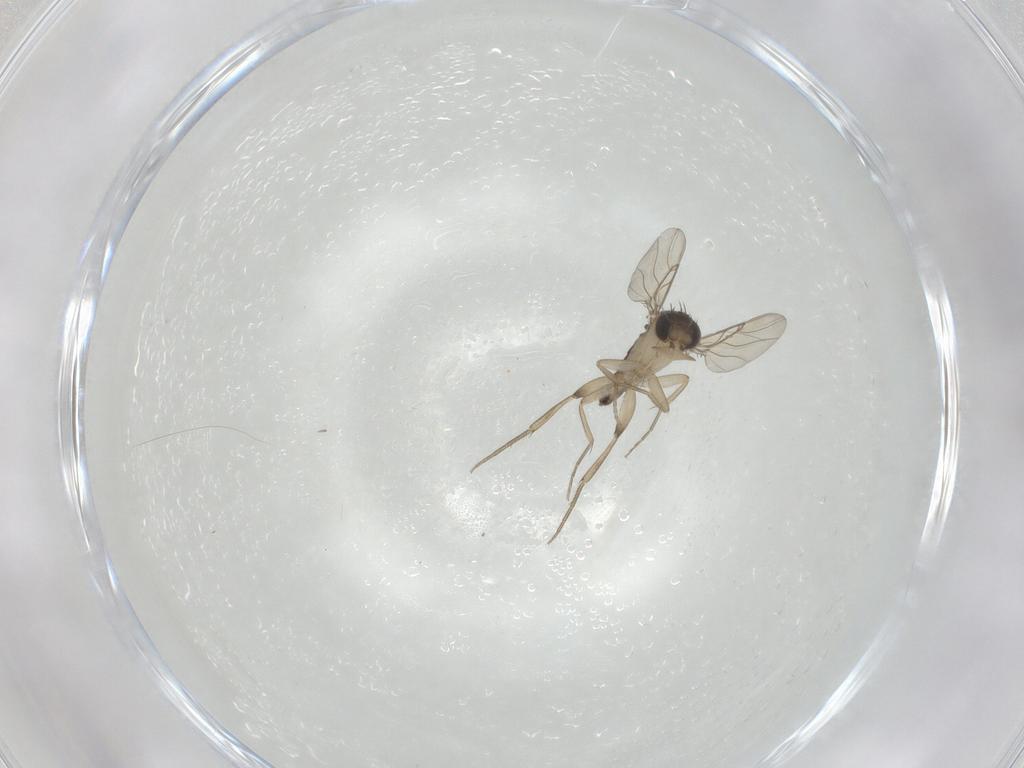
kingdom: Animalia
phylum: Arthropoda
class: Insecta
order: Diptera
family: Phoridae
